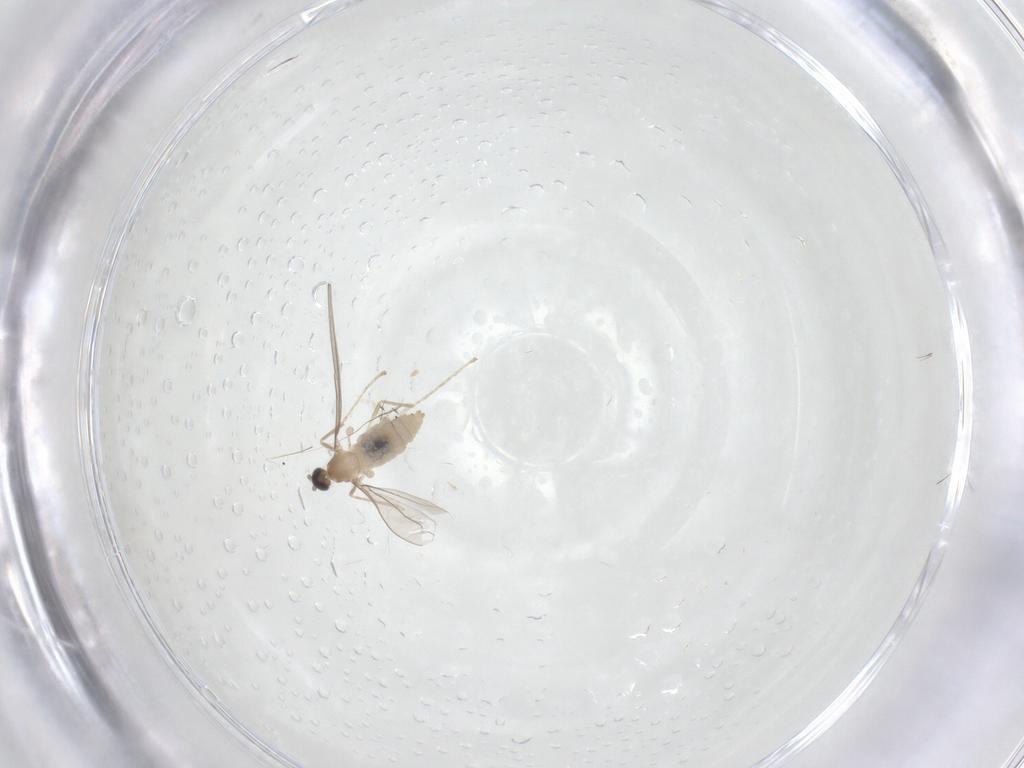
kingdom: Animalia
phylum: Arthropoda
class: Insecta
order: Diptera
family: Cecidomyiidae
